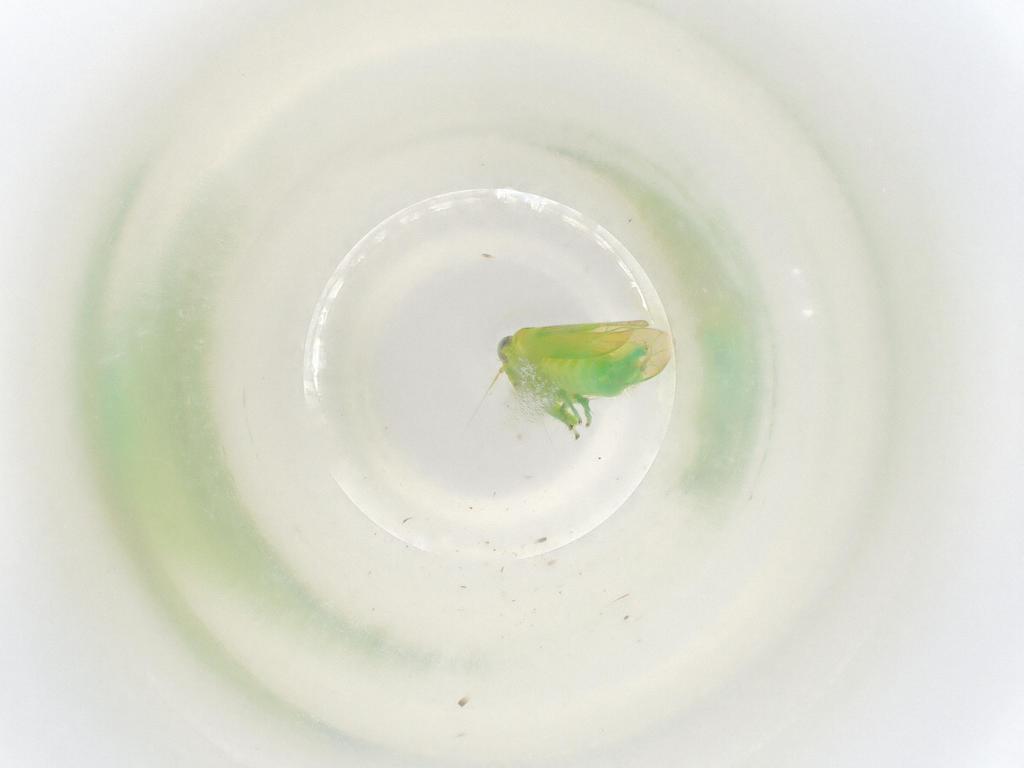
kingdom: Animalia
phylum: Arthropoda
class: Insecta
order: Hemiptera
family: Cicadellidae
